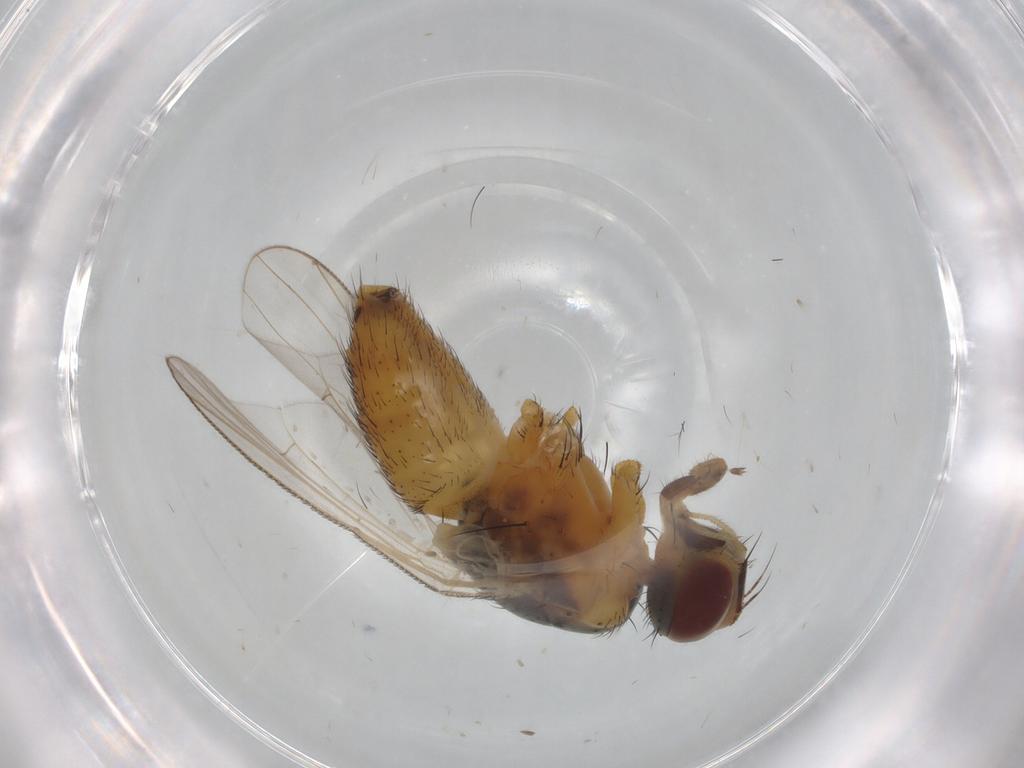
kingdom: Animalia
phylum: Arthropoda
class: Insecta
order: Diptera
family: Muscidae
